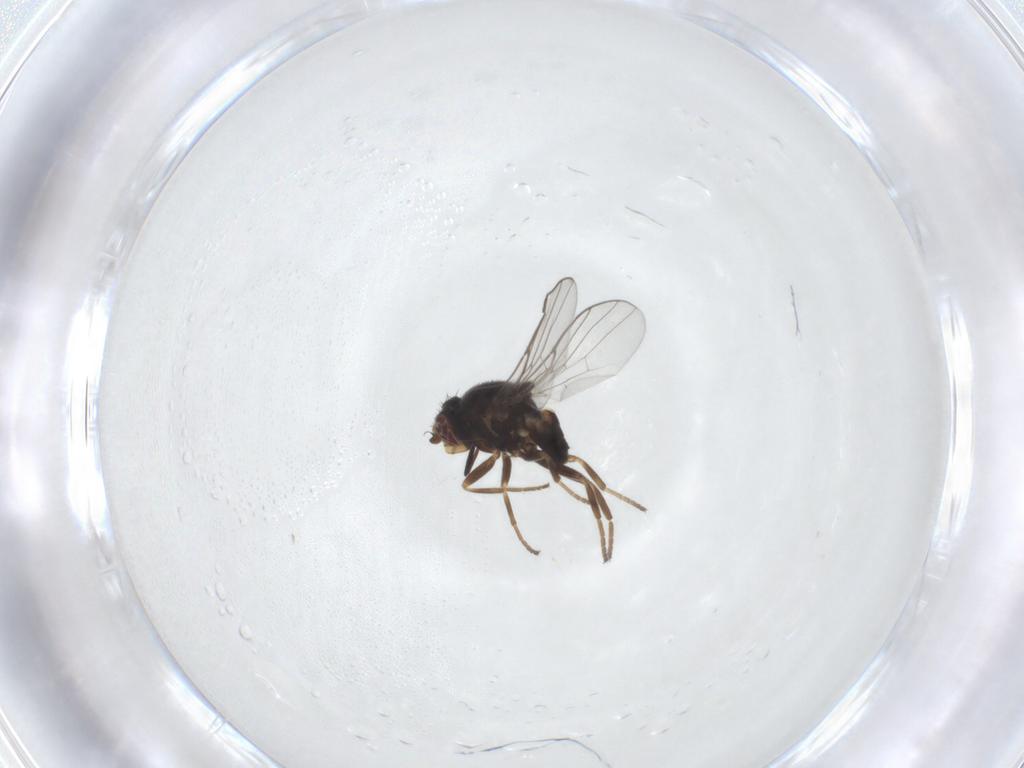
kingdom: Animalia
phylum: Arthropoda
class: Insecta
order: Diptera
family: Chloropidae
